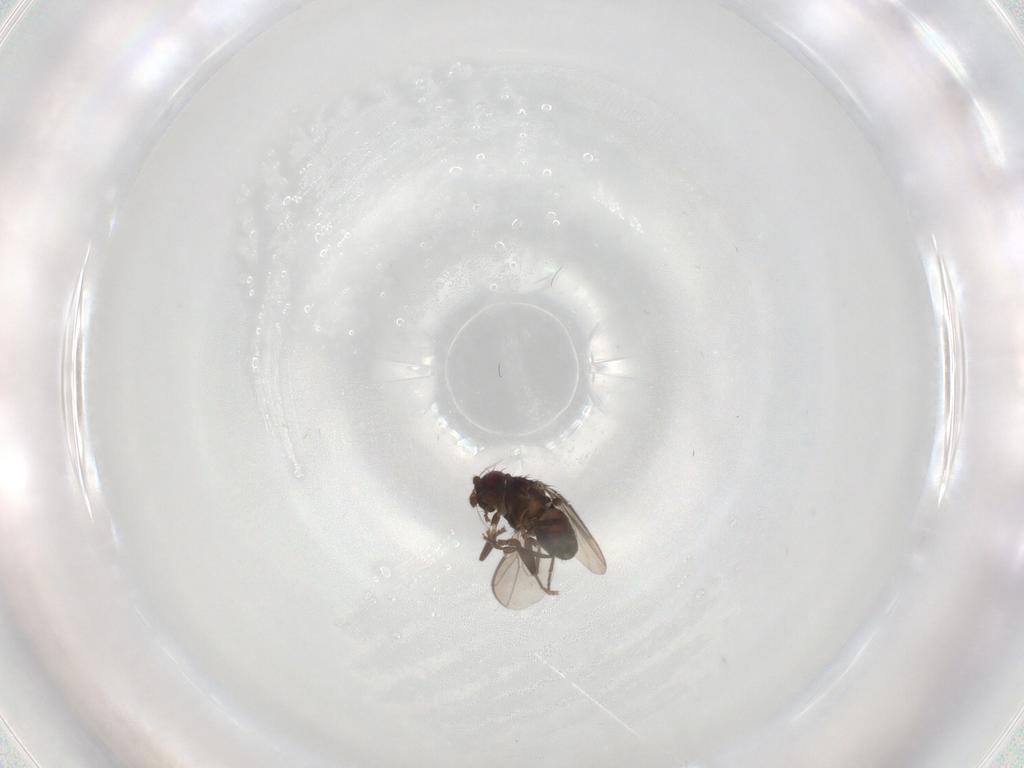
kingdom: Animalia
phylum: Arthropoda
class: Insecta
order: Diptera
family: Sphaeroceridae
